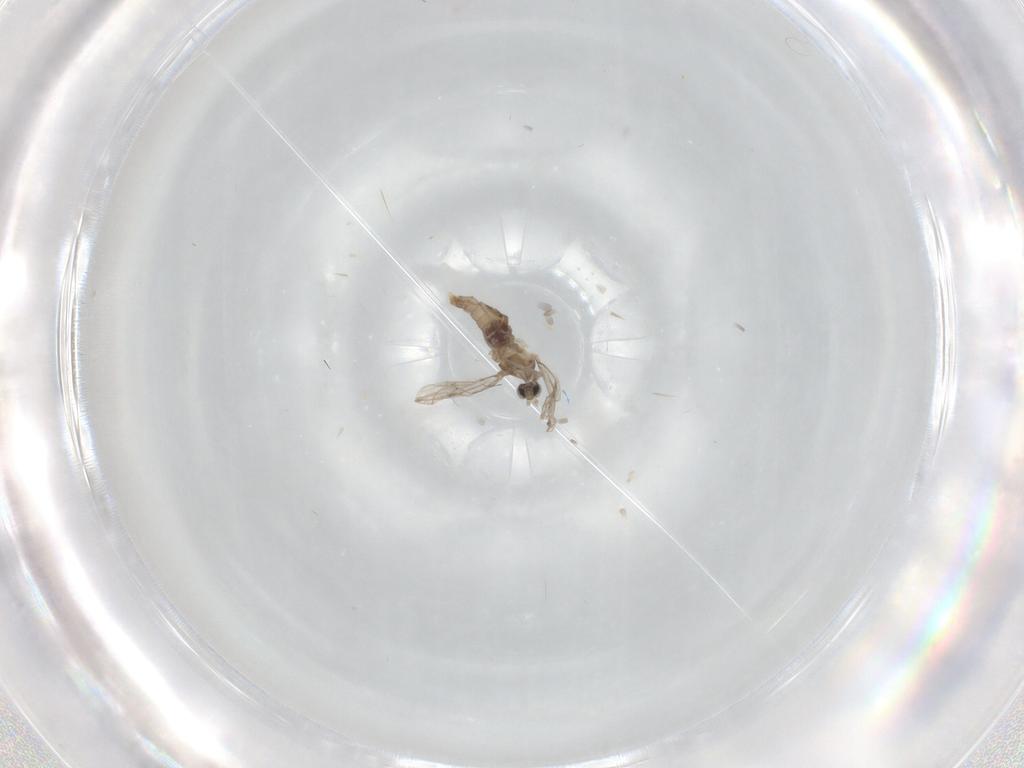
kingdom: Animalia
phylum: Arthropoda
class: Insecta
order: Diptera
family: Cecidomyiidae
